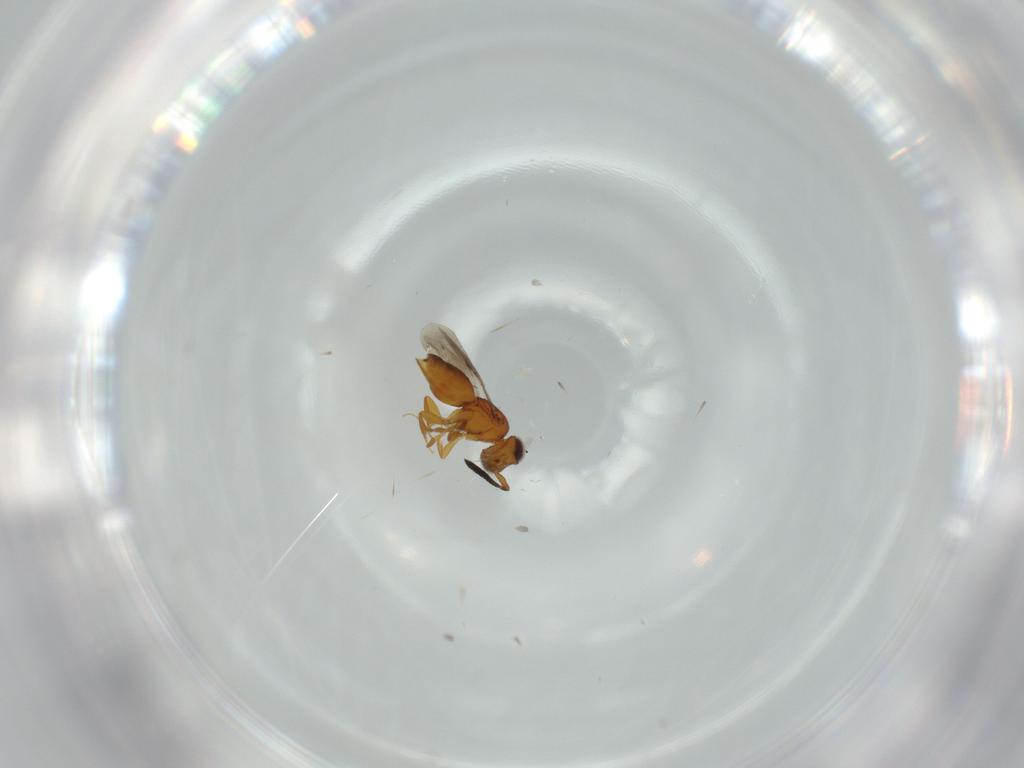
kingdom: Animalia
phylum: Arthropoda
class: Insecta
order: Hymenoptera
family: Ceraphronidae
